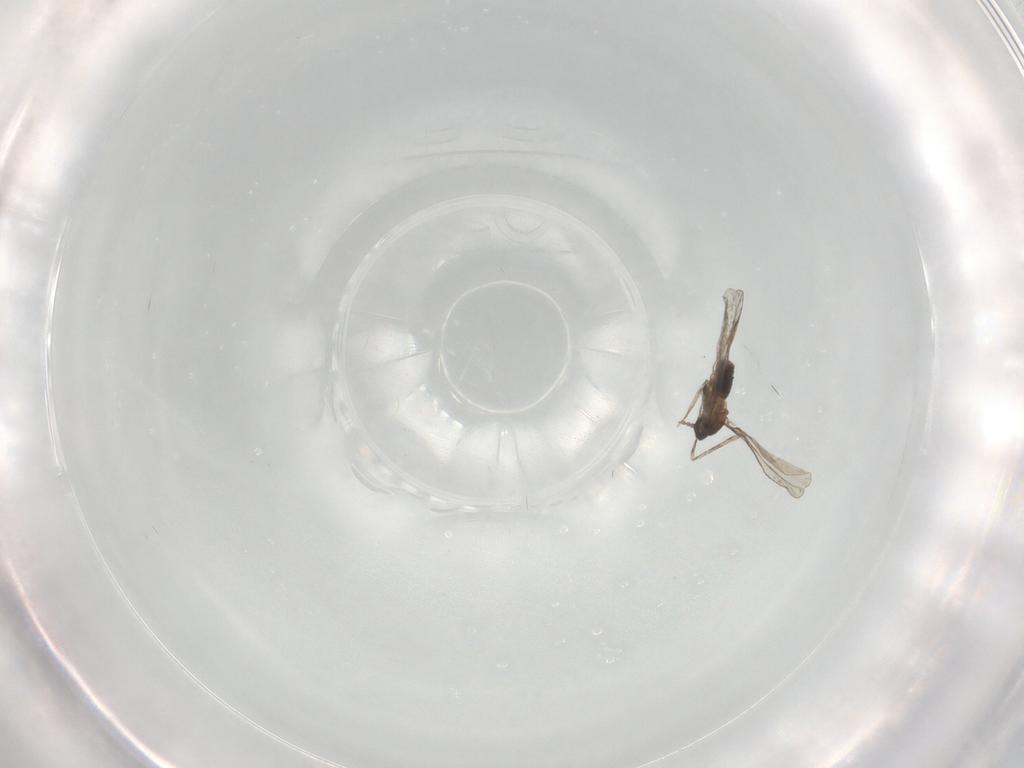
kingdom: Animalia
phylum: Arthropoda
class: Insecta
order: Diptera
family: Cecidomyiidae
